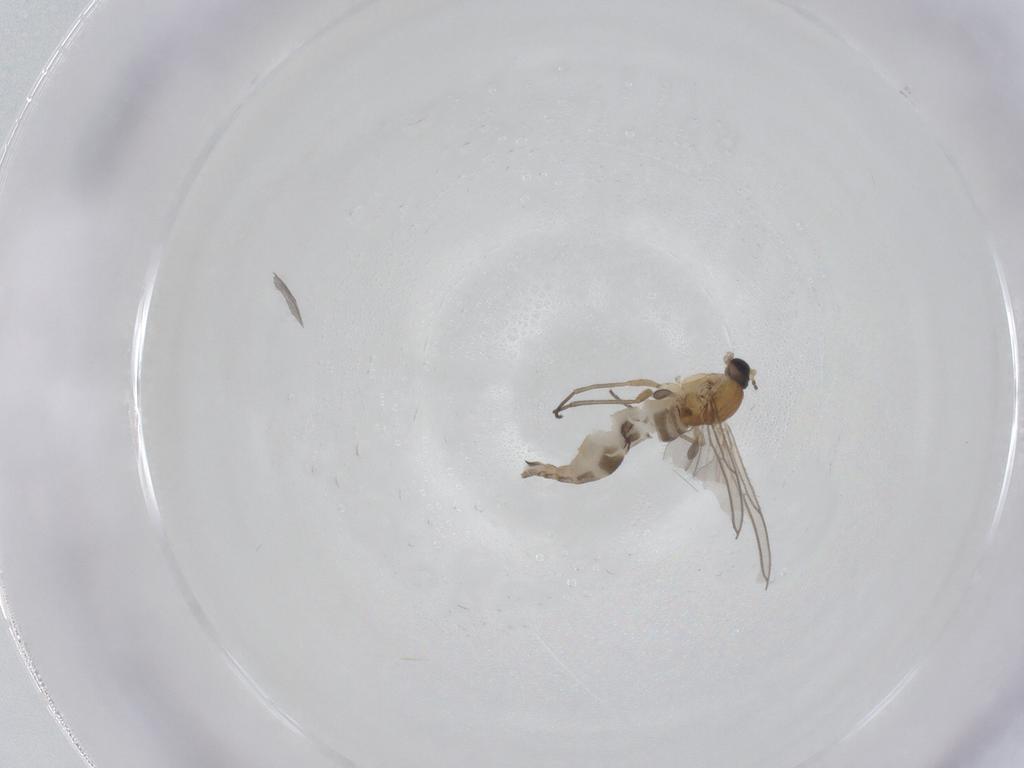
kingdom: Animalia
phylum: Arthropoda
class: Insecta
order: Diptera
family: Sciaridae
